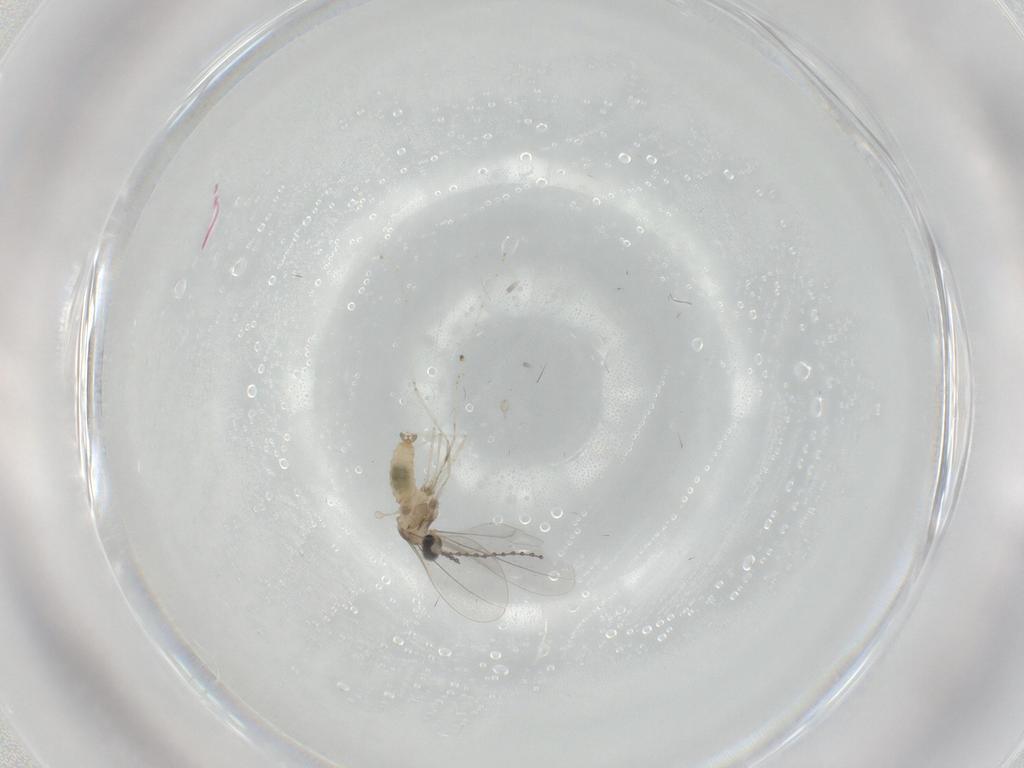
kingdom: Animalia
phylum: Arthropoda
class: Insecta
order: Diptera
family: Cecidomyiidae
